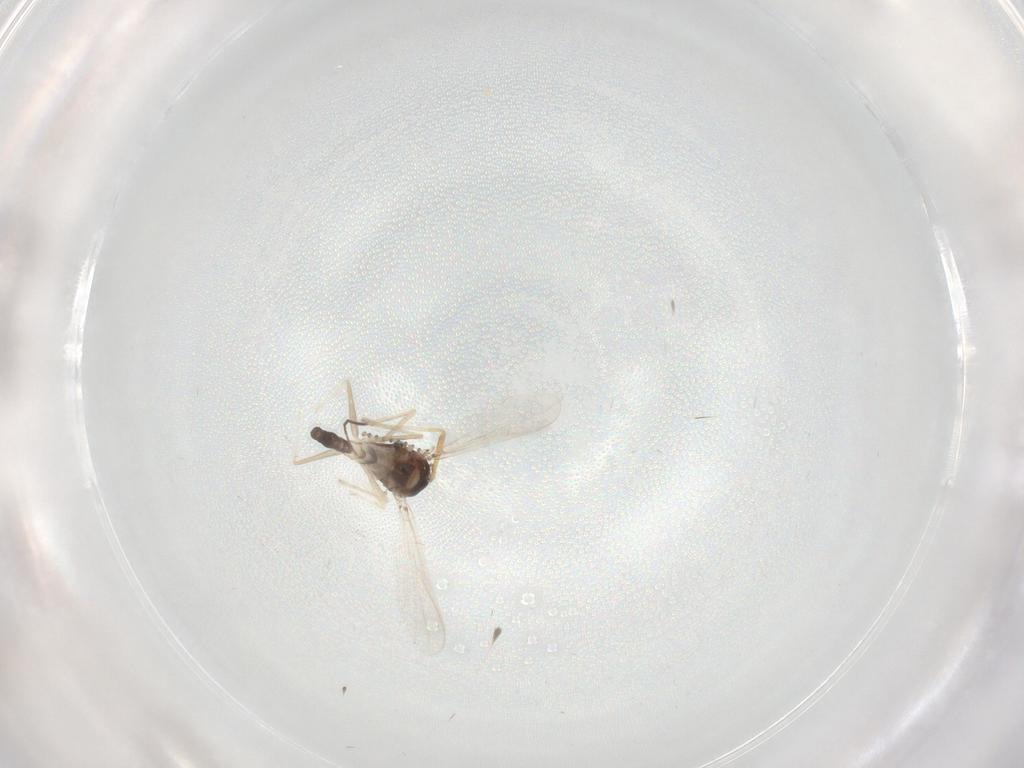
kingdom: Animalia
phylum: Arthropoda
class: Insecta
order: Diptera
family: Chironomidae
